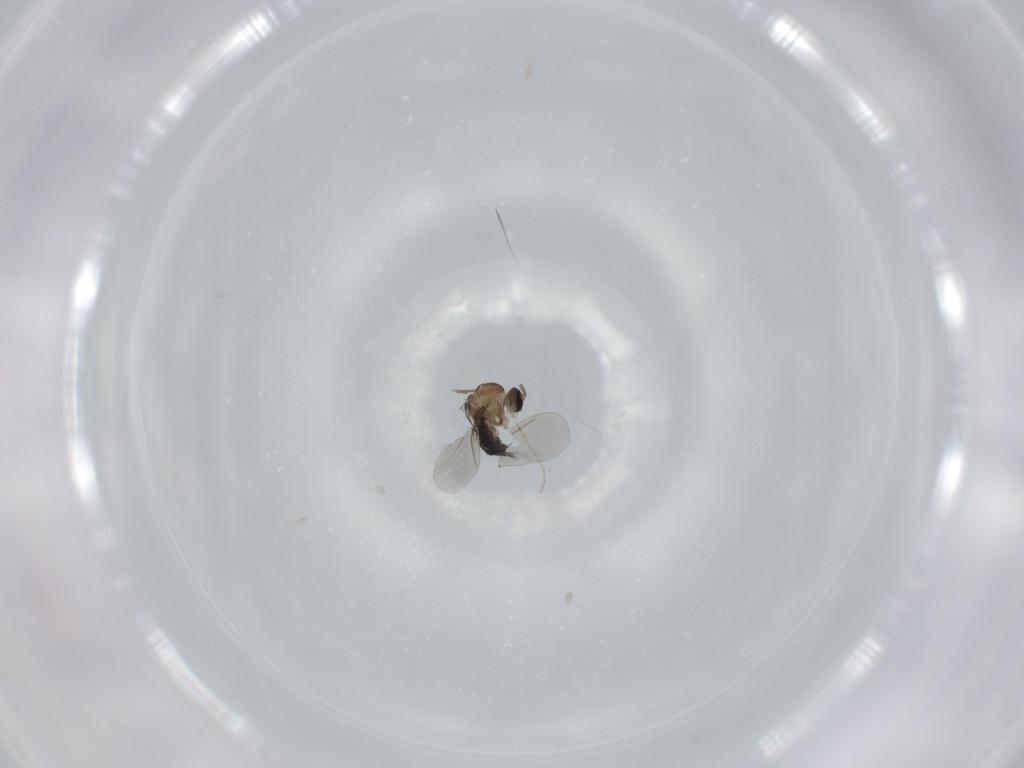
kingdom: Animalia
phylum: Arthropoda
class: Insecta
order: Diptera
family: Cecidomyiidae
